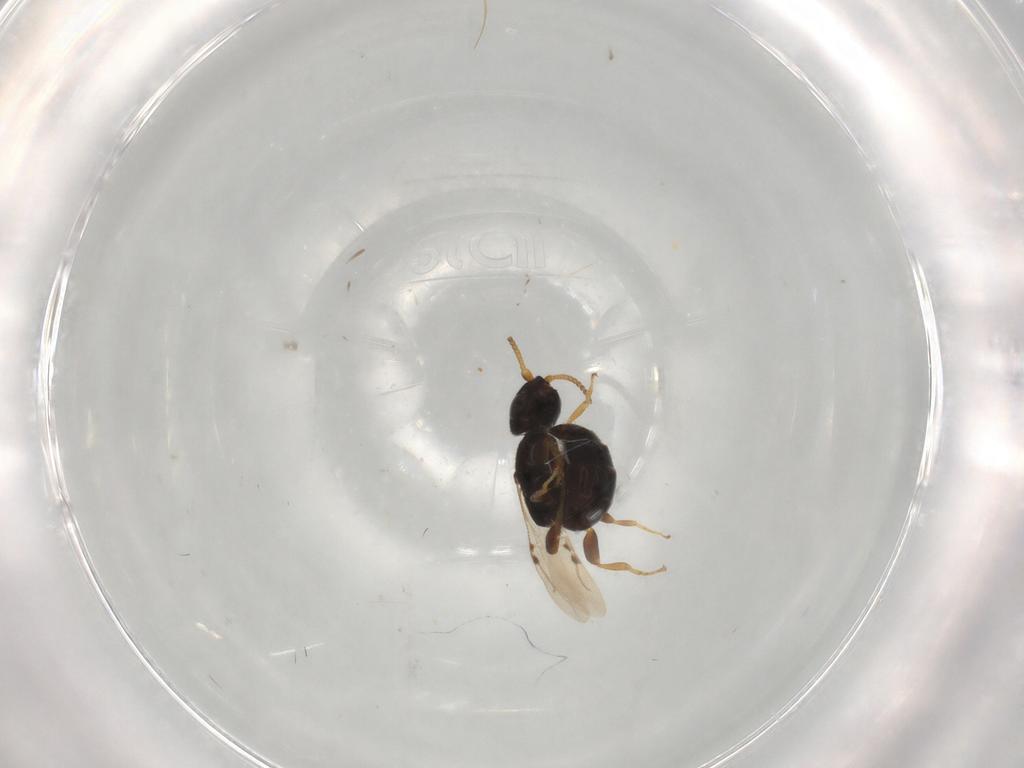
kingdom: Animalia
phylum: Arthropoda
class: Insecta
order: Hymenoptera
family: Bethylidae
